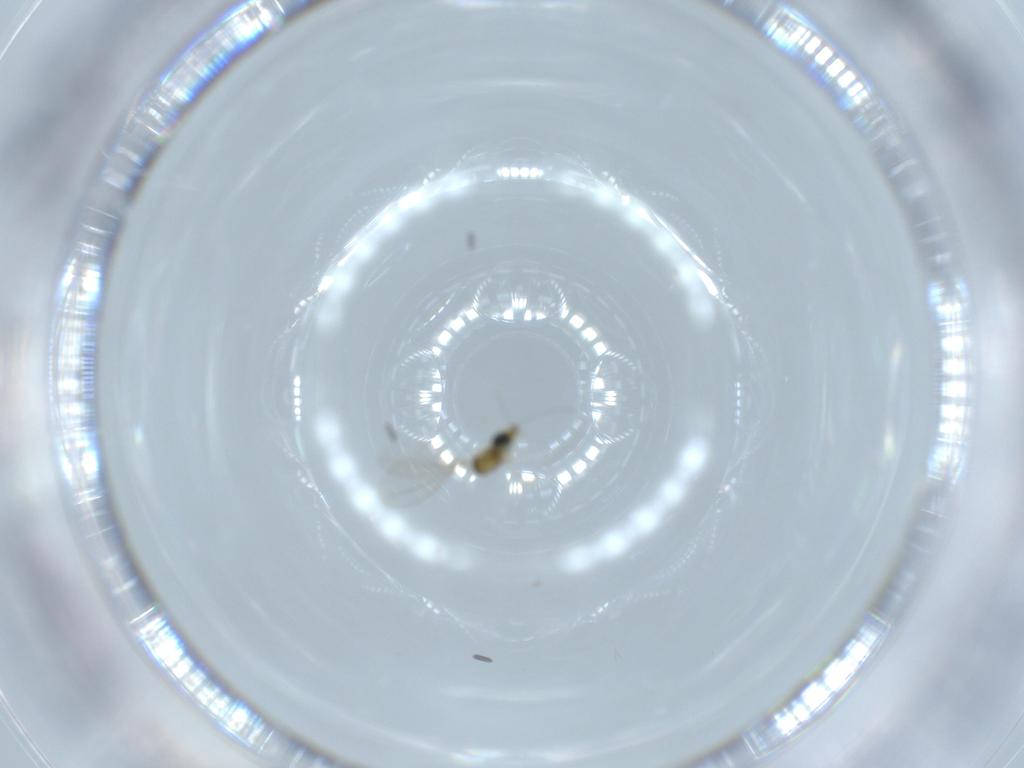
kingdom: Animalia
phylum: Arthropoda
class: Insecta
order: Diptera
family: Cecidomyiidae
